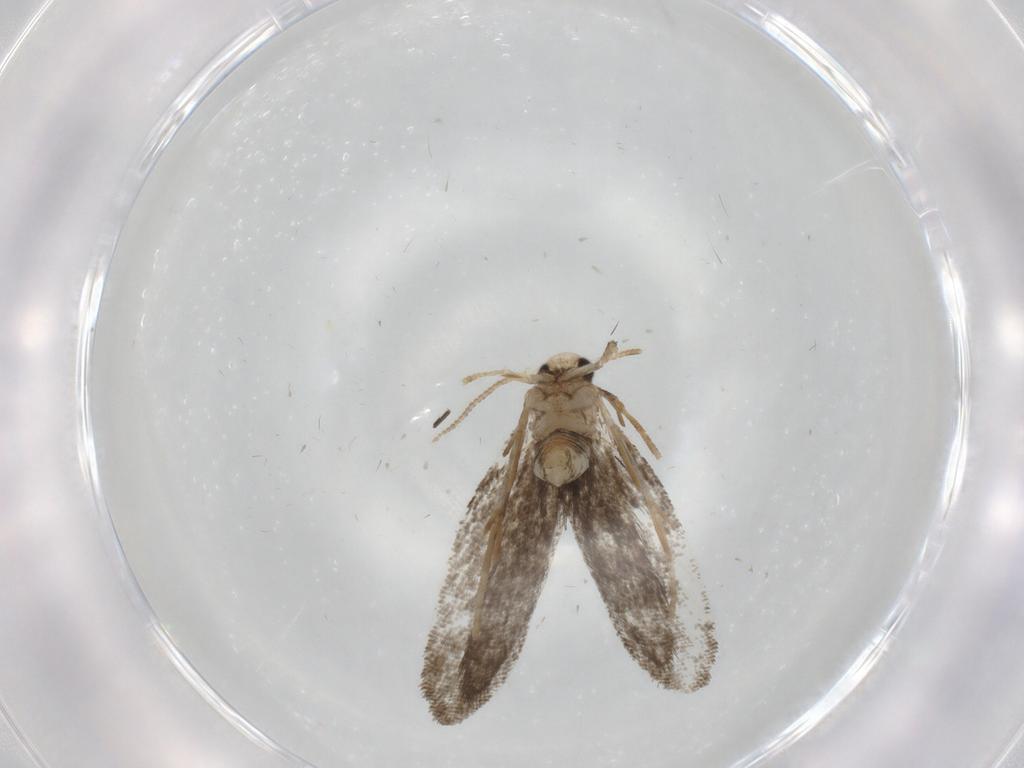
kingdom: Animalia
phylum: Arthropoda
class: Insecta
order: Lepidoptera
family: Psychidae
